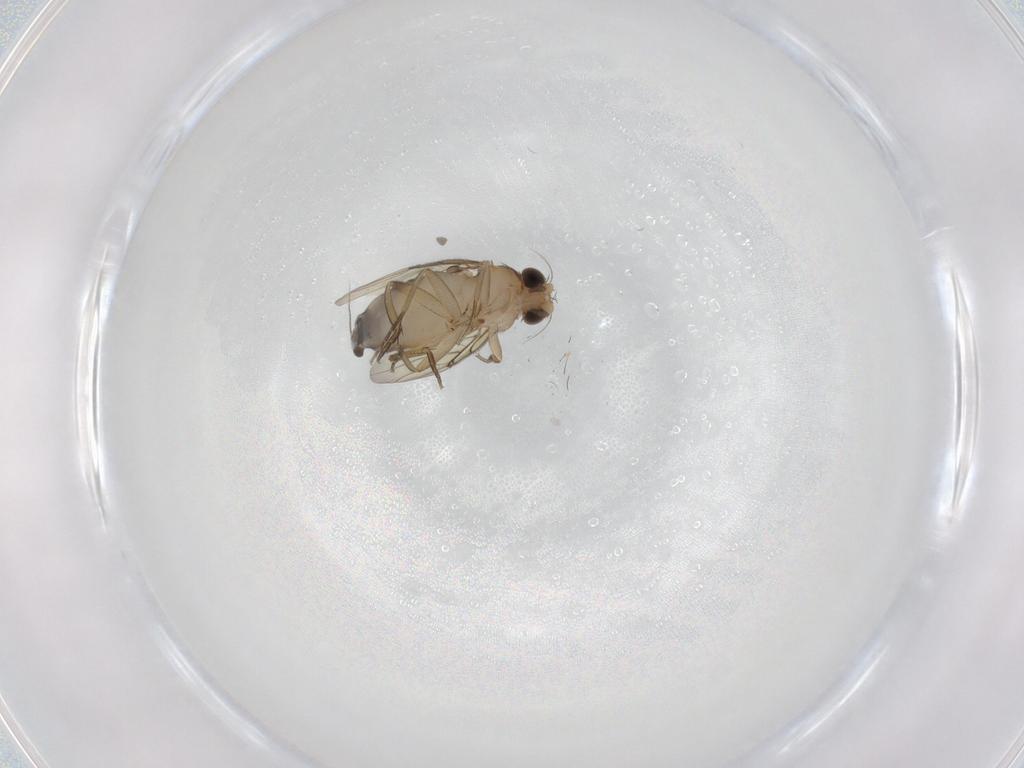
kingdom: Animalia
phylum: Arthropoda
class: Insecta
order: Diptera
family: Phoridae
